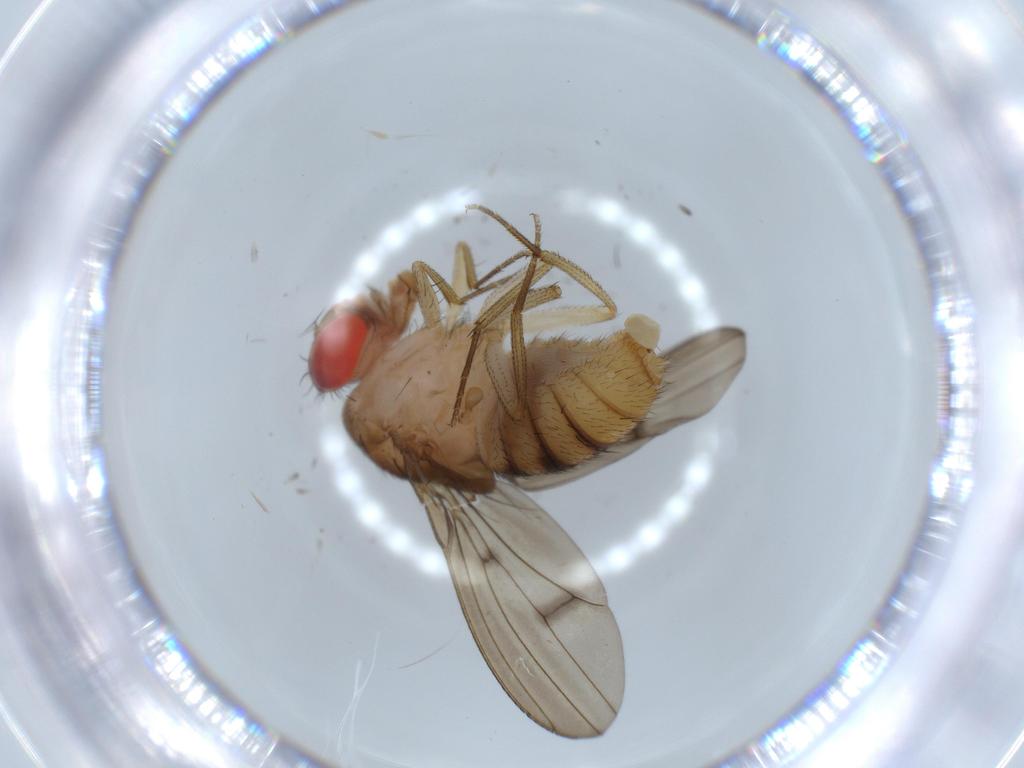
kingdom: Animalia
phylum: Arthropoda
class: Insecta
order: Diptera
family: Drosophilidae
